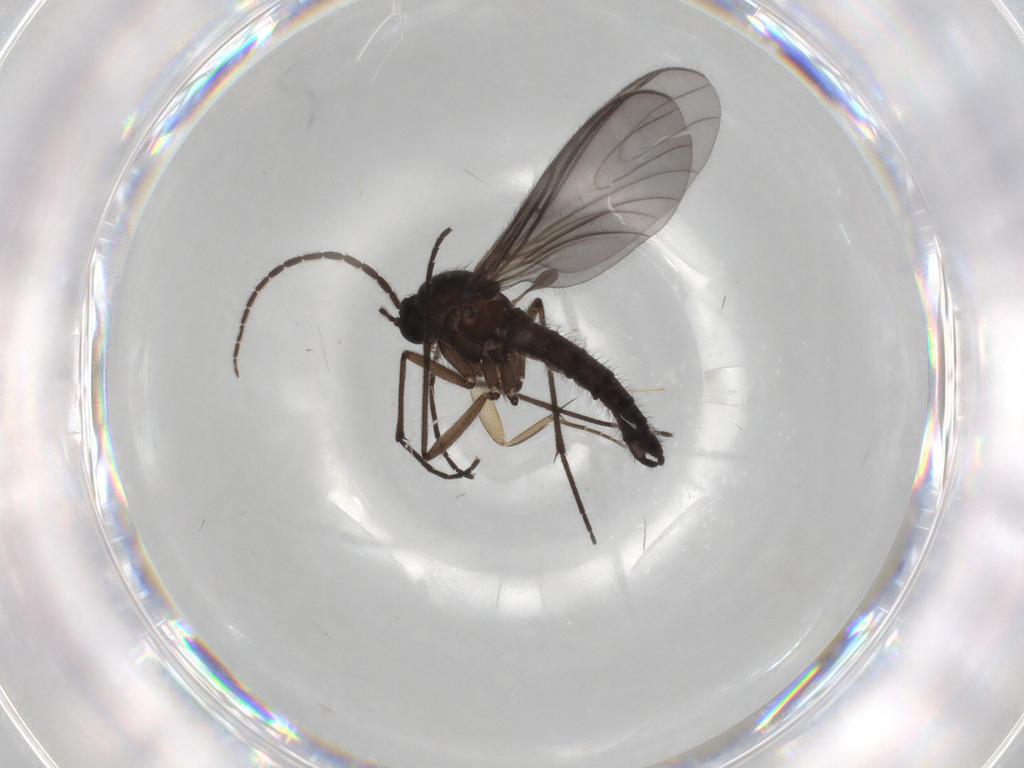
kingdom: Animalia
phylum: Arthropoda
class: Insecta
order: Diptera
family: Sciaridae
